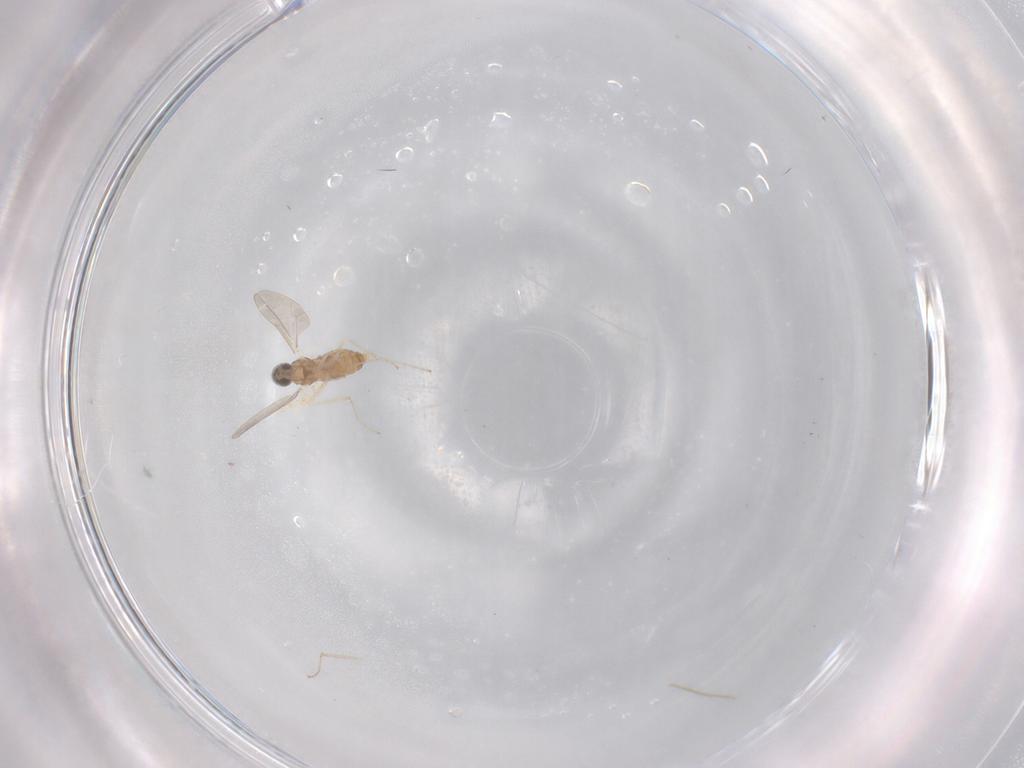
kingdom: Animalia
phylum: Arthropoda
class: Insecta
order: Diptera
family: Cecidomyiidae
